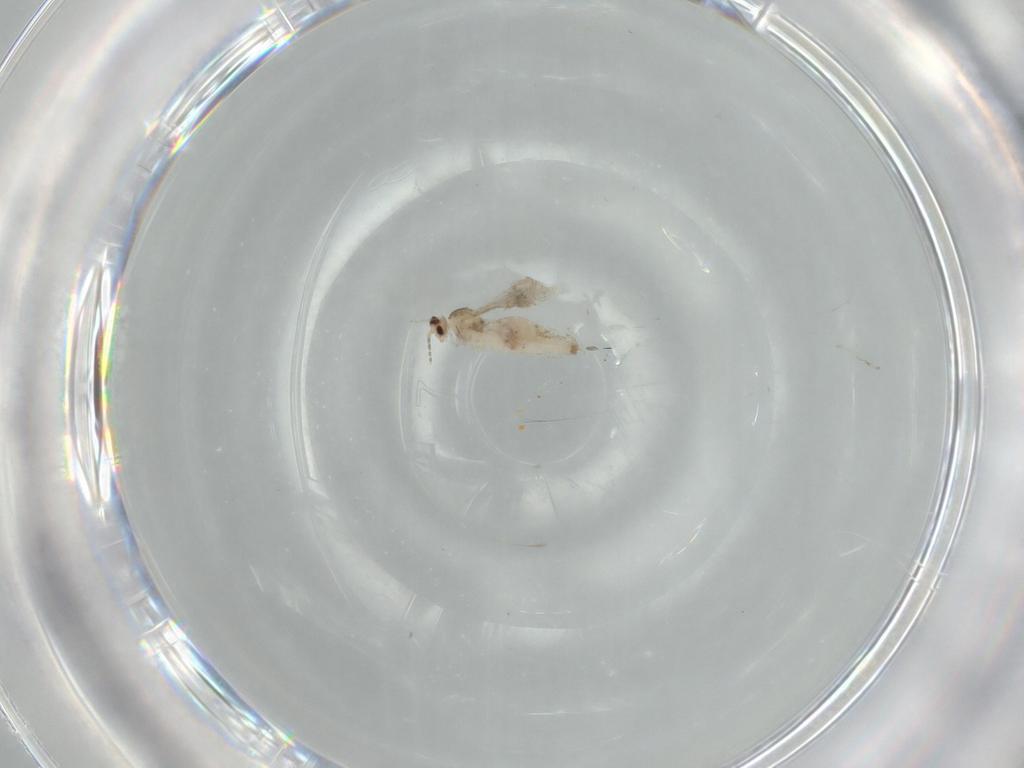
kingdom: Animalia
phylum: Arthropoda
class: Insecta
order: Diptera
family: Cecidomyiidae
